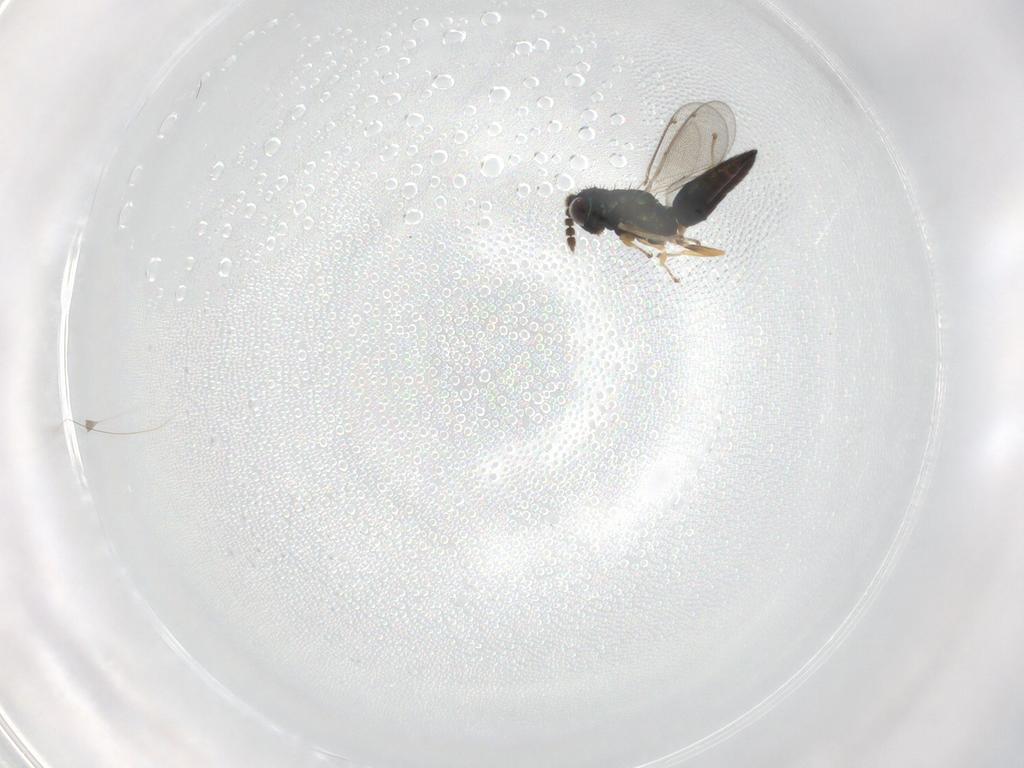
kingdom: Animalia
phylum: Arthropoda
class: Insecta
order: Hymenoptera
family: Eulophidae
